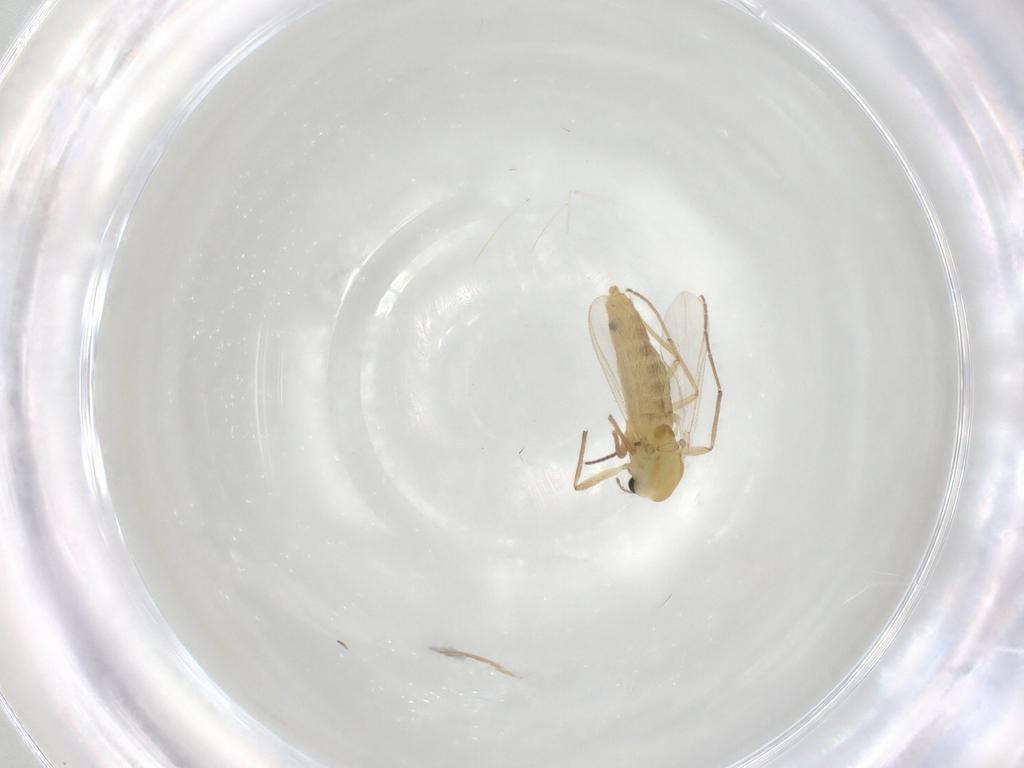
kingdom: Animalia
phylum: Arthropoda
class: Insecta
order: Diptera
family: Chironomidae
